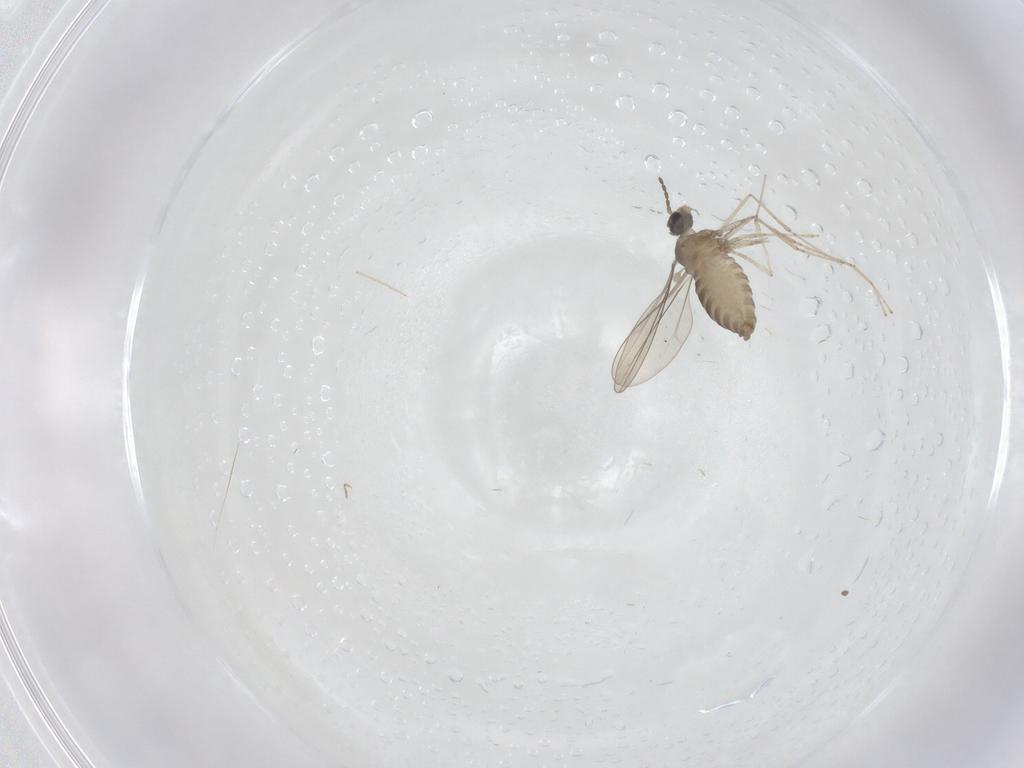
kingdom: Animalia
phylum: Arthropoda
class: Insecta
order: Diptera
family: Cecidomyiidae
